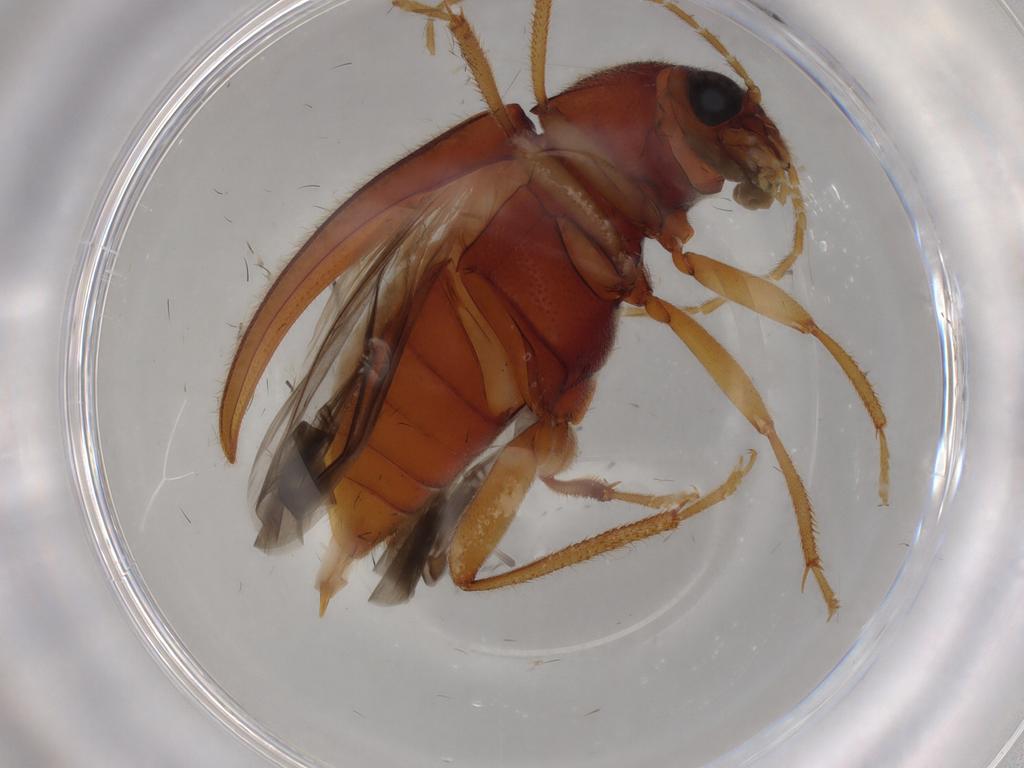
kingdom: Animalia
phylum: Arthropoda
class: Insecta
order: Coleoptera
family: Ptilodactylidae
